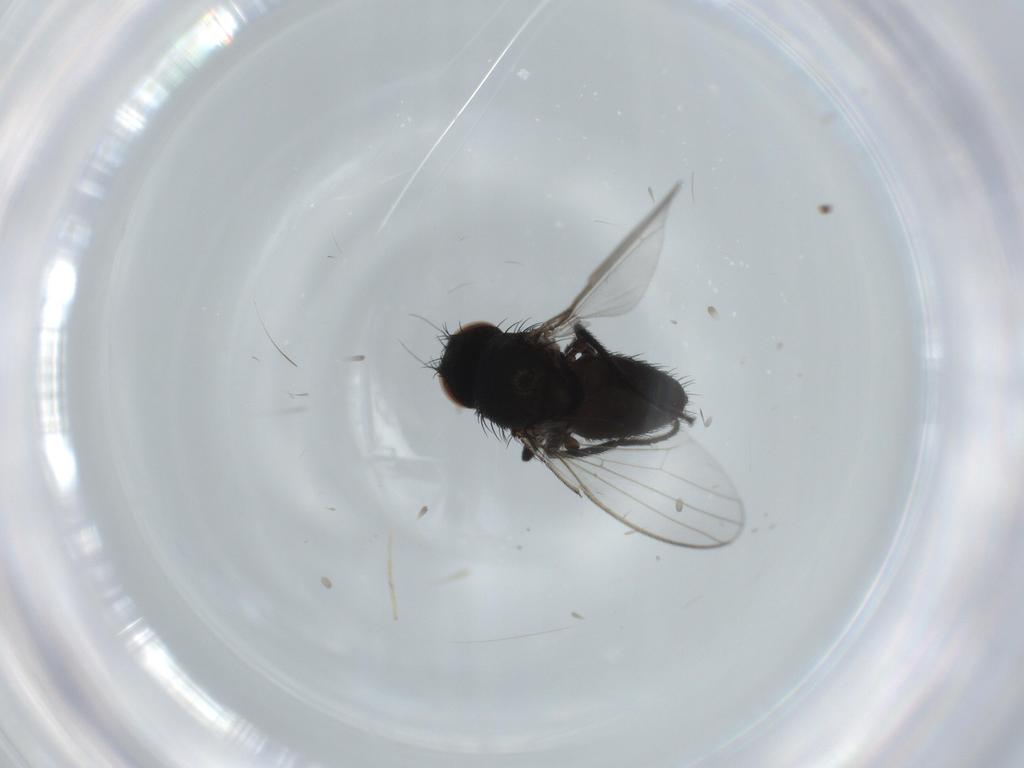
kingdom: Animalia
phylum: Arthropoda
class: Insecta
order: Diptera
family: Milichiidae
